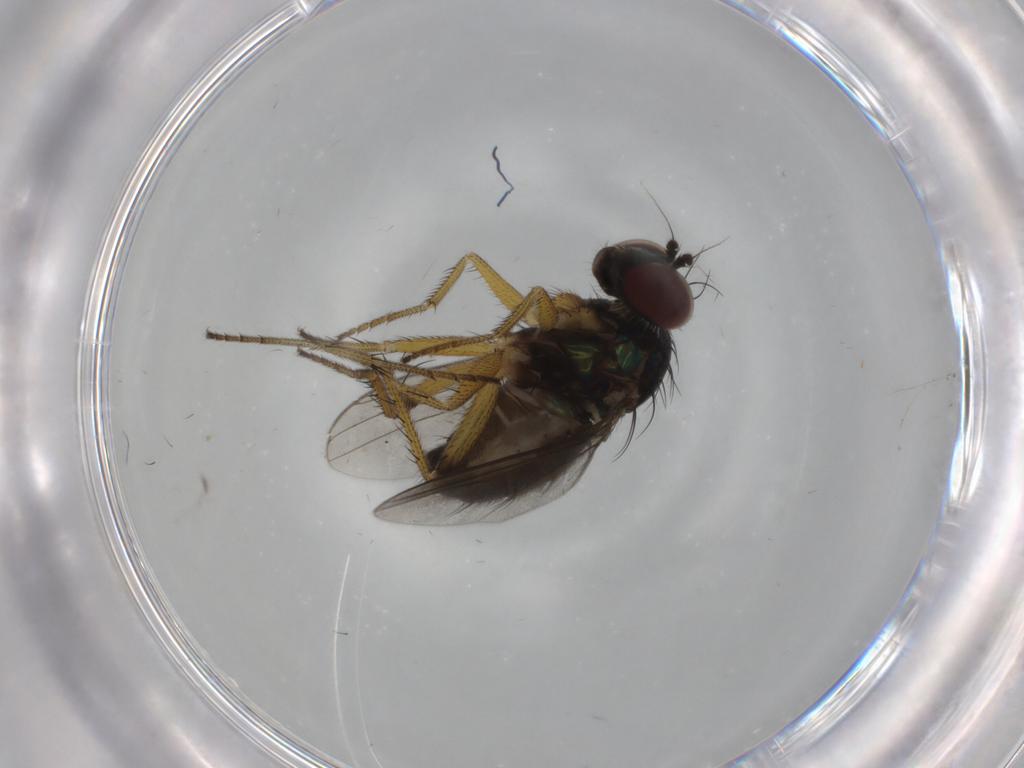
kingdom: Animalia
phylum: Arthropoda
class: Insecta
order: Diptera
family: Dolichopodidae
